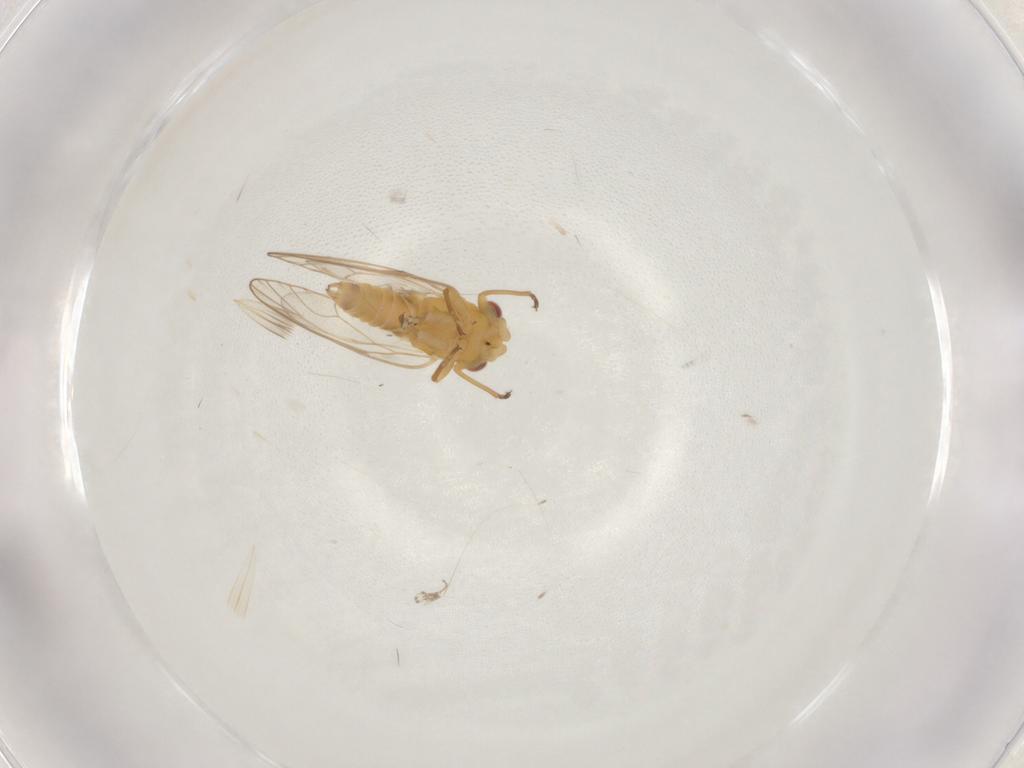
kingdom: Animalia
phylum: Arthropoda
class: Insecta
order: Hemiptera
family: Psyllidae
